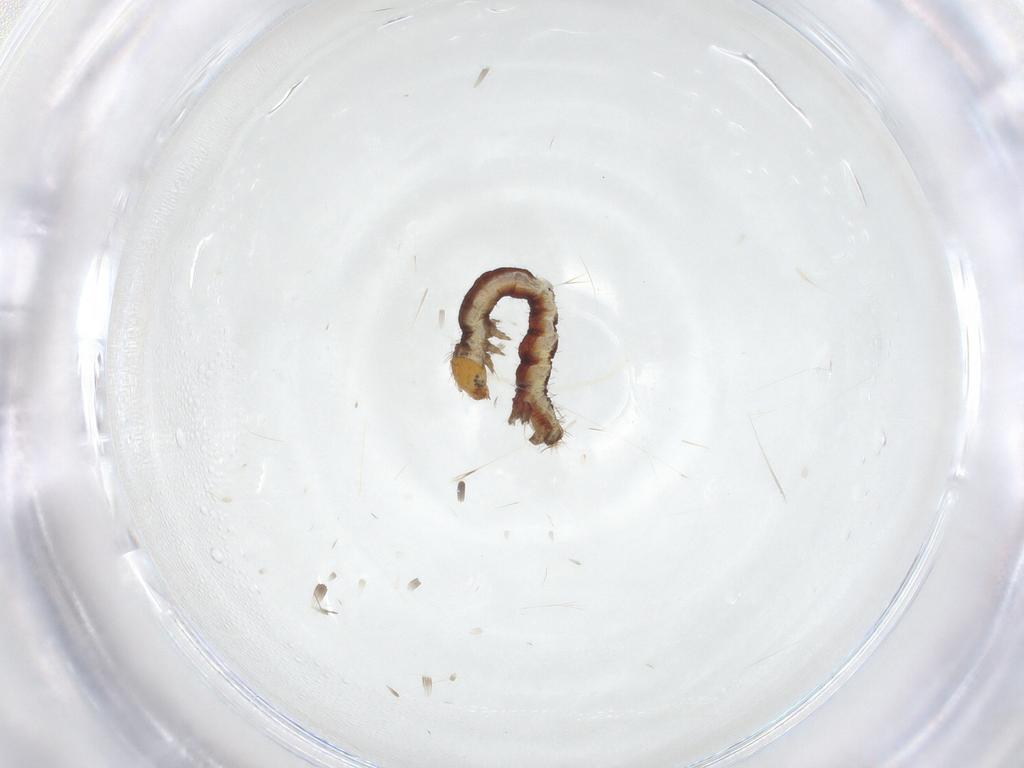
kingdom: Animalia
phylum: Arthropoda
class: Insecta
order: Lepidoptera
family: Geometridae
